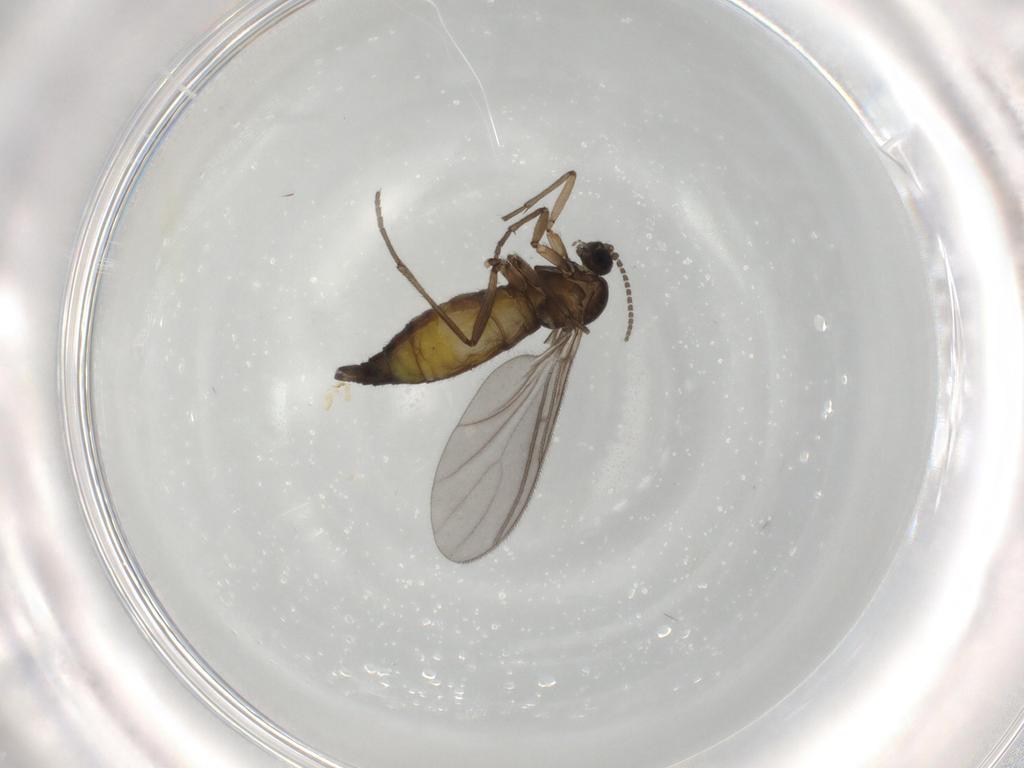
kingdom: Animalia
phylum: Arthropoda
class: Insecta
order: Diptera
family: Sciaridae
